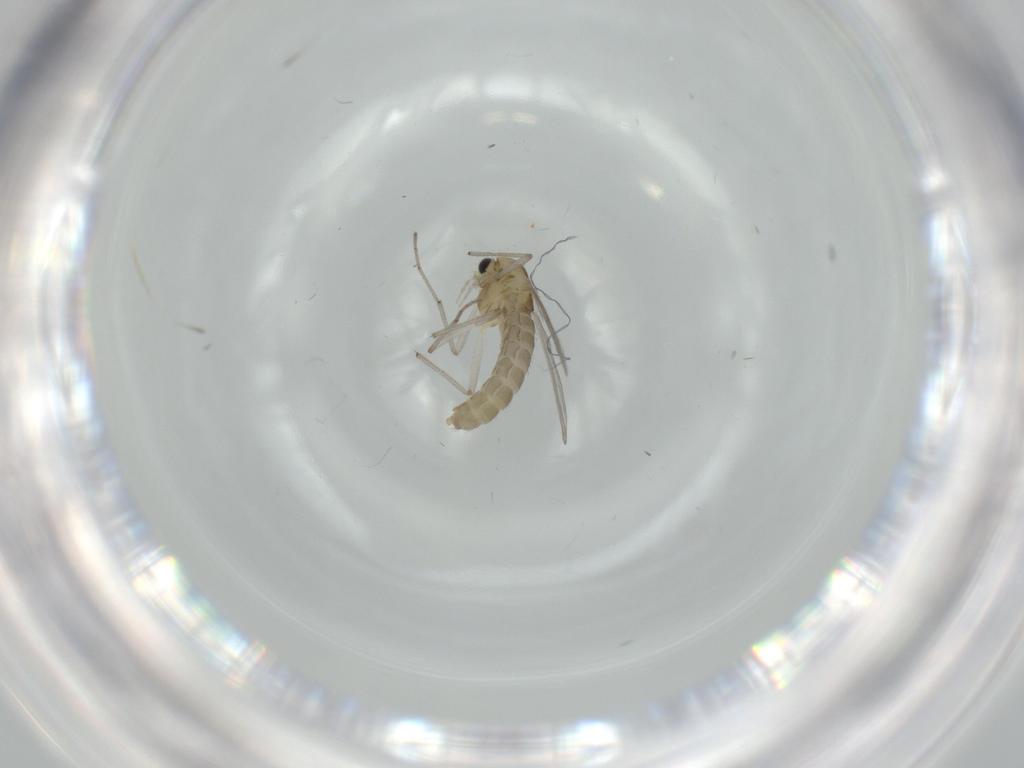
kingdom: Animalia
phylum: Arthropoda
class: Insecta
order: Diptera
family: Chironomidae
